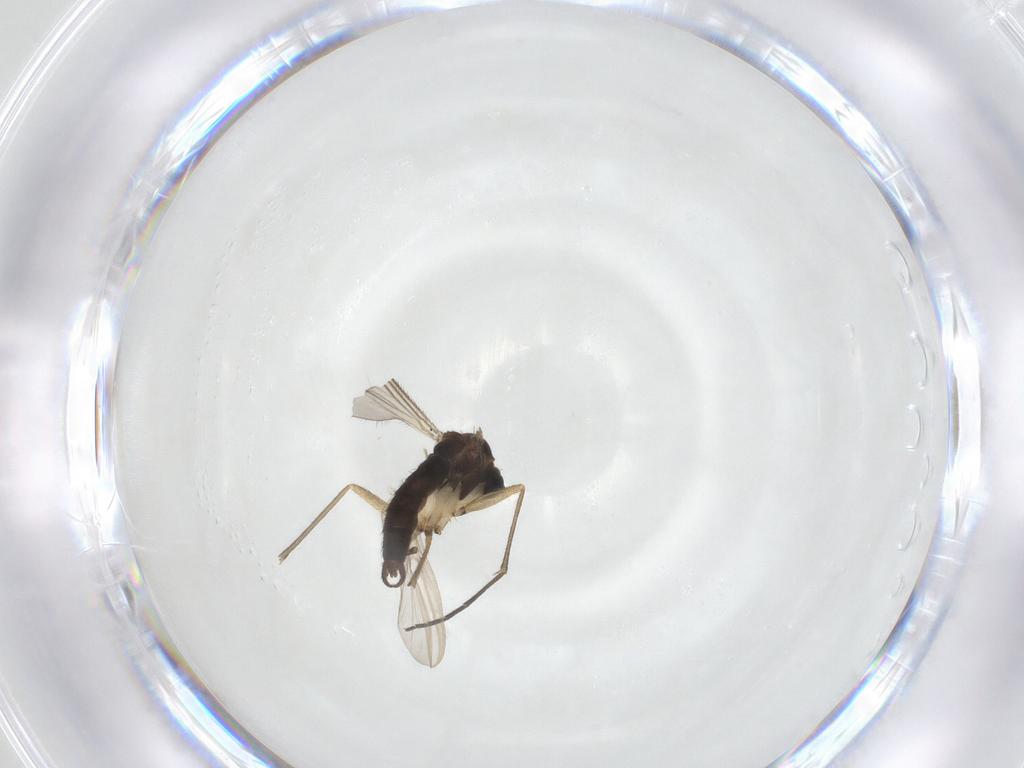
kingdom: Animalia
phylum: Arthropoda
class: Insecta
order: Diptera
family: Sciaridae
